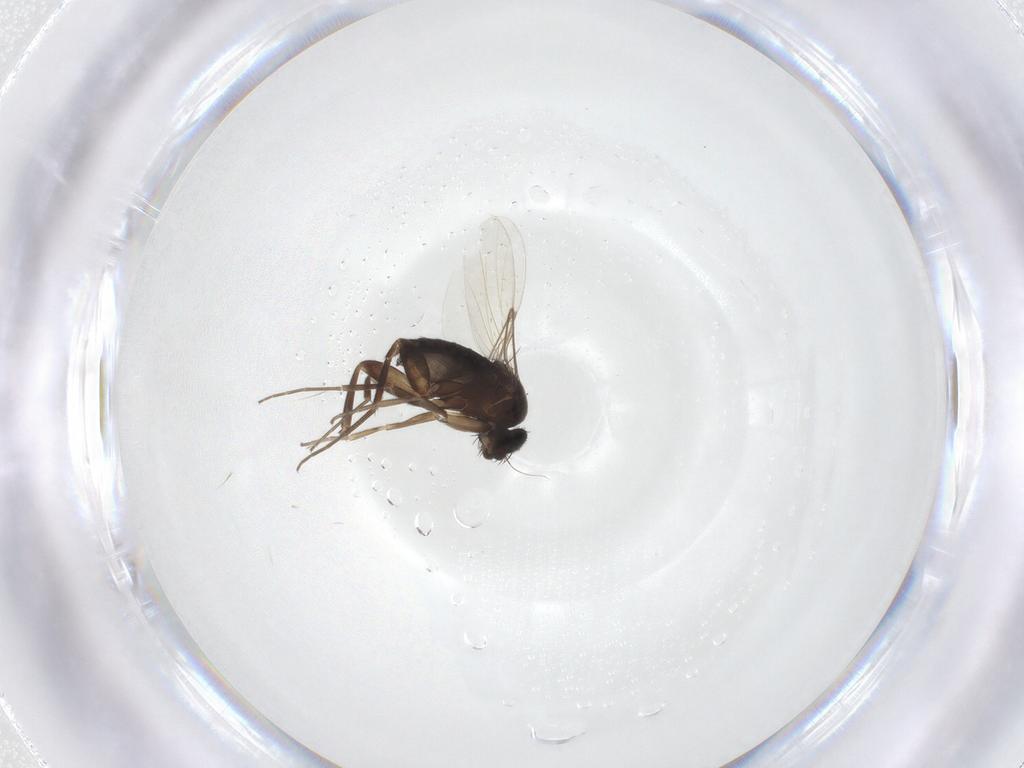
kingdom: Animalia
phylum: Arthropoda
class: Insecta
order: Diptera
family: Phoridae
